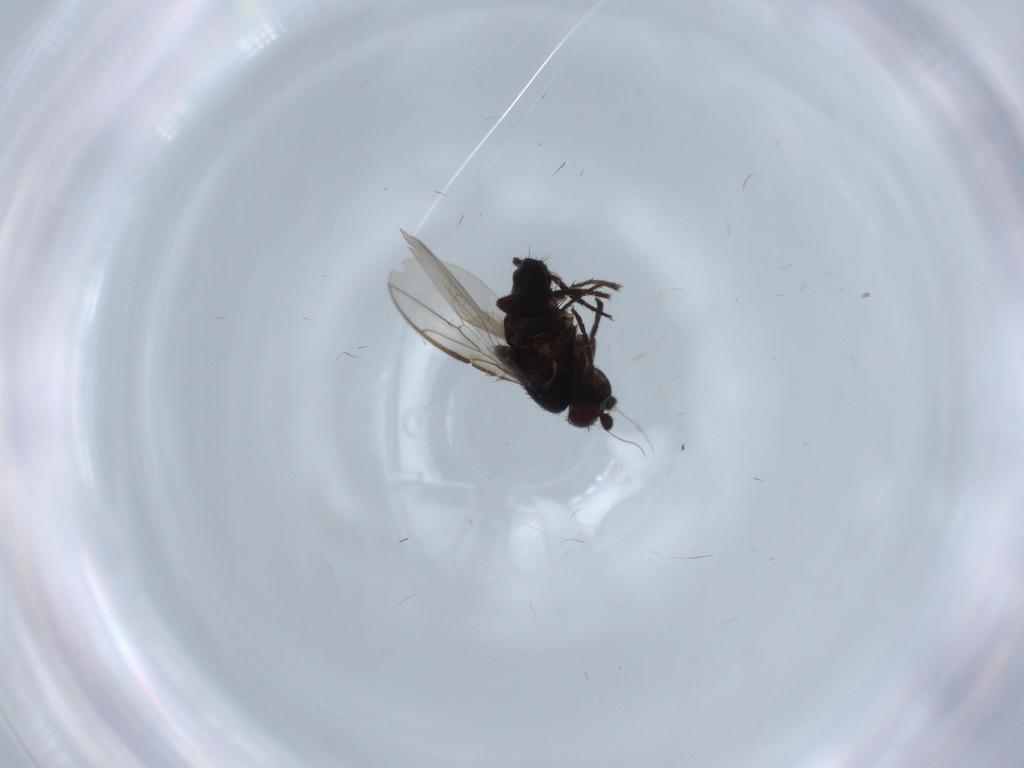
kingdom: Animalia
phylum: Arthropoda
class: Insecta
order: Diptera
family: Sphaeroceridae
